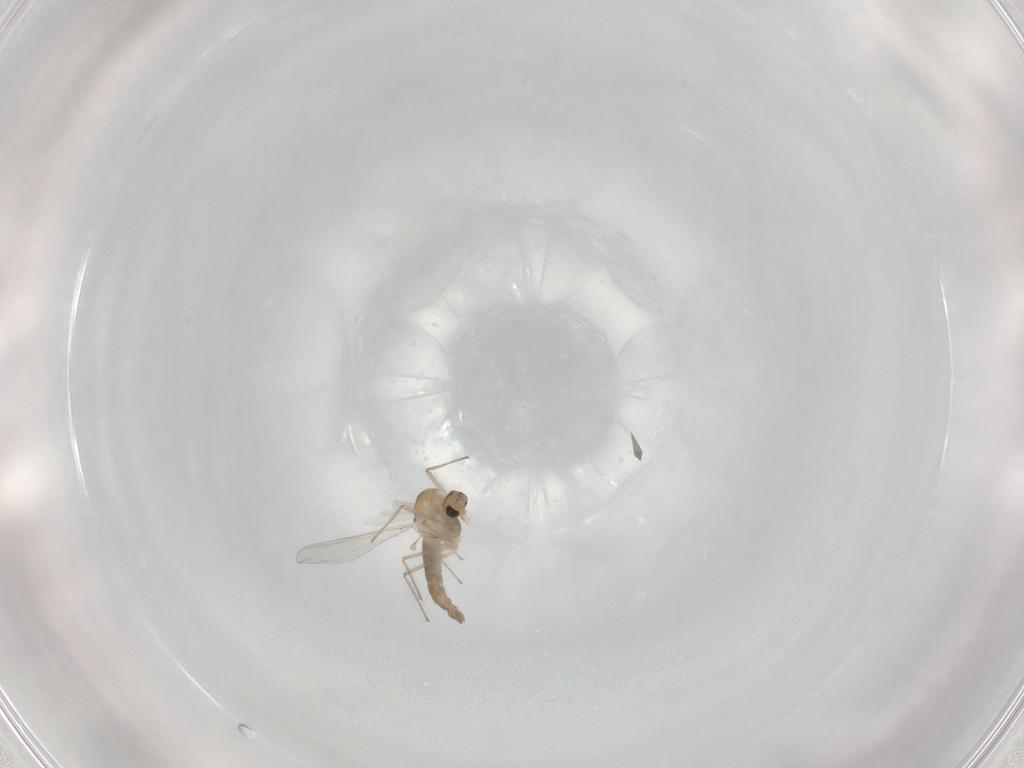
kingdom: Animalia
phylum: Arthropoda
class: Insecta
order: Diptera
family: Chironomidae
